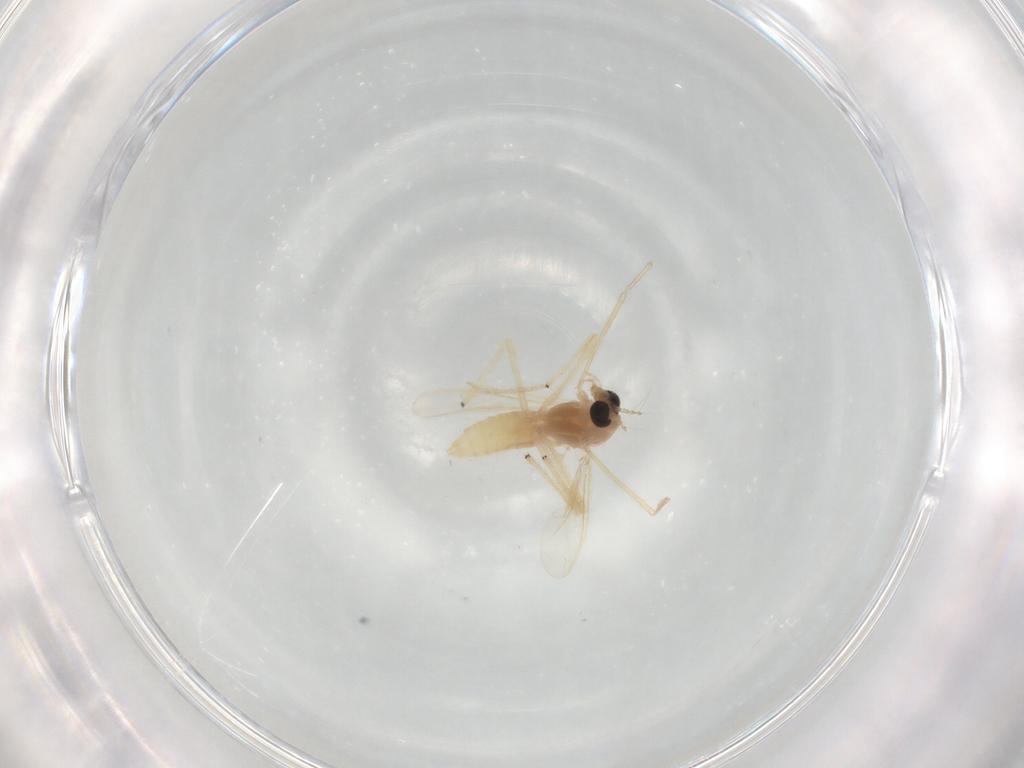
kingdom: Animalia
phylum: Arthropoda
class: Insecta
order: Diptera
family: Chironomidae
